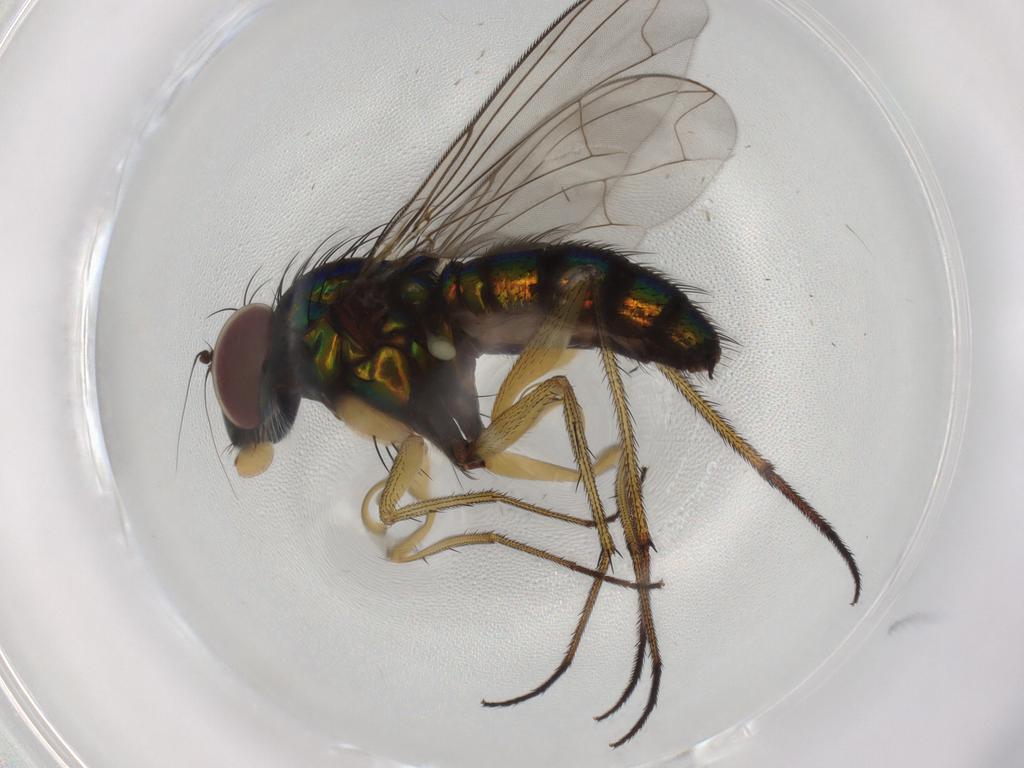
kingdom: Animalia
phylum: Arthropoda
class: Insecta
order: Diptera
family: Dolichopodidae
